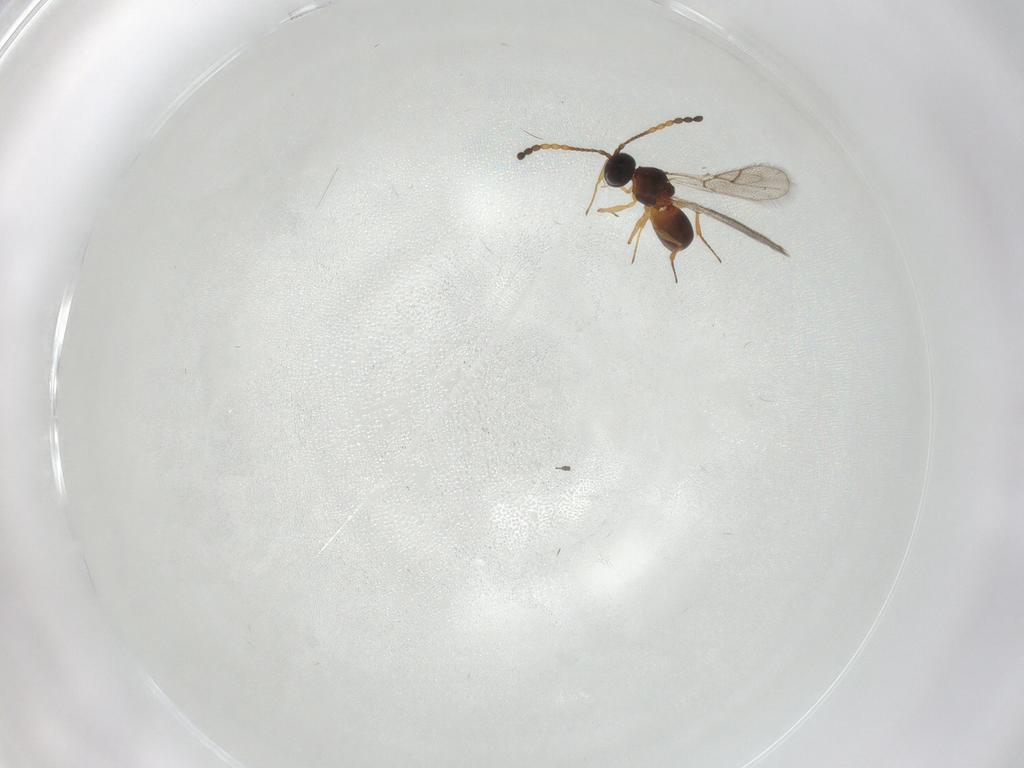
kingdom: Animalia
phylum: Arthropoda
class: Insecta
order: Hymenoptera
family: Figitidae
